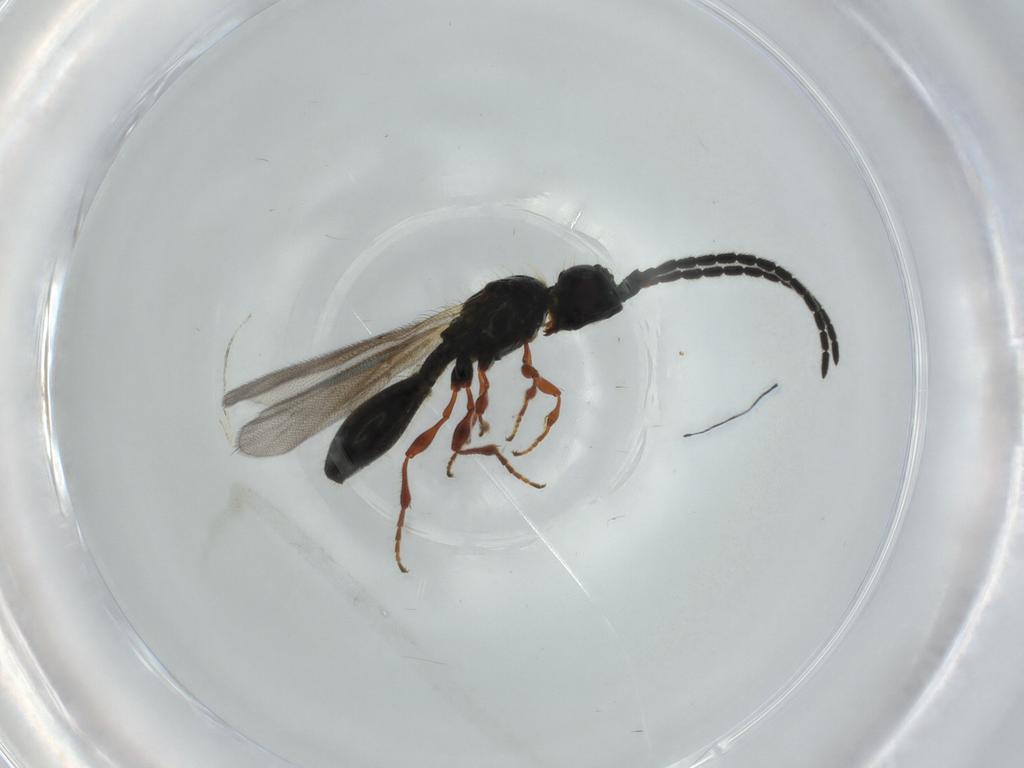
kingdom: Animalia
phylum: Arthropoda
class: Insecta
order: Hymenoptera
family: Diapriidae
